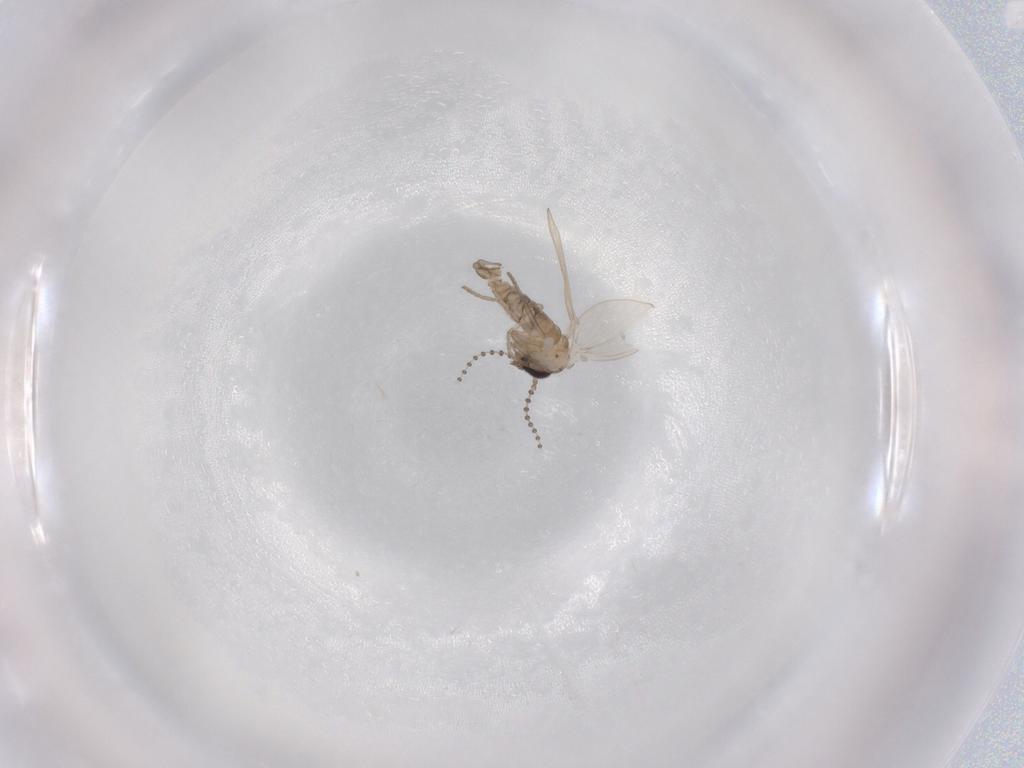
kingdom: Animalia
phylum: Arthropoda
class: Insecta
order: Diptera
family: Psychodidae
